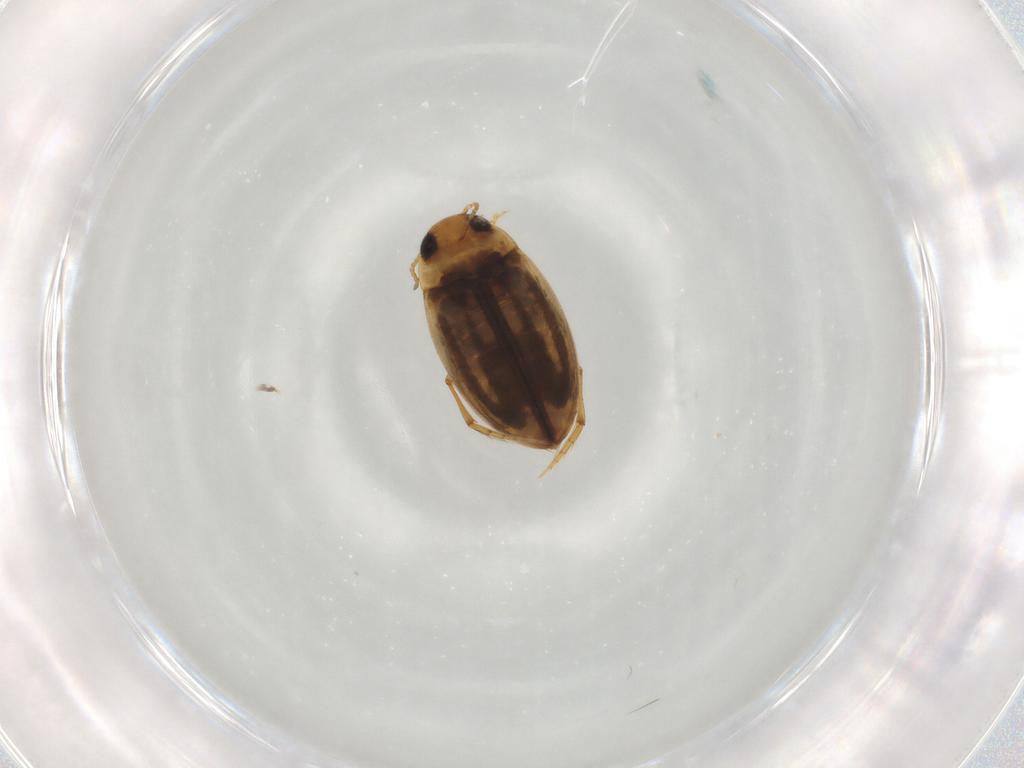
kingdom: Animalia
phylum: Arthropoda
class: Insecta
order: Coleoptera
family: Dytiscidae
